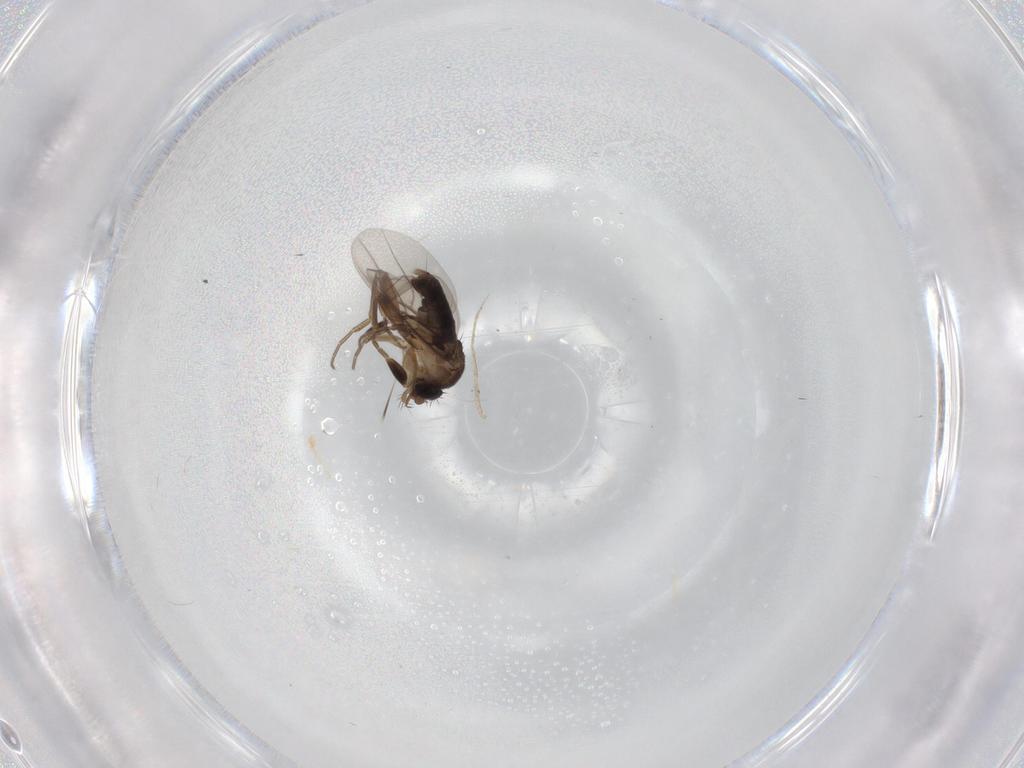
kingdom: Animalia
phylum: Arthropoda
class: Insecta
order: Diptera
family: Phoridae
